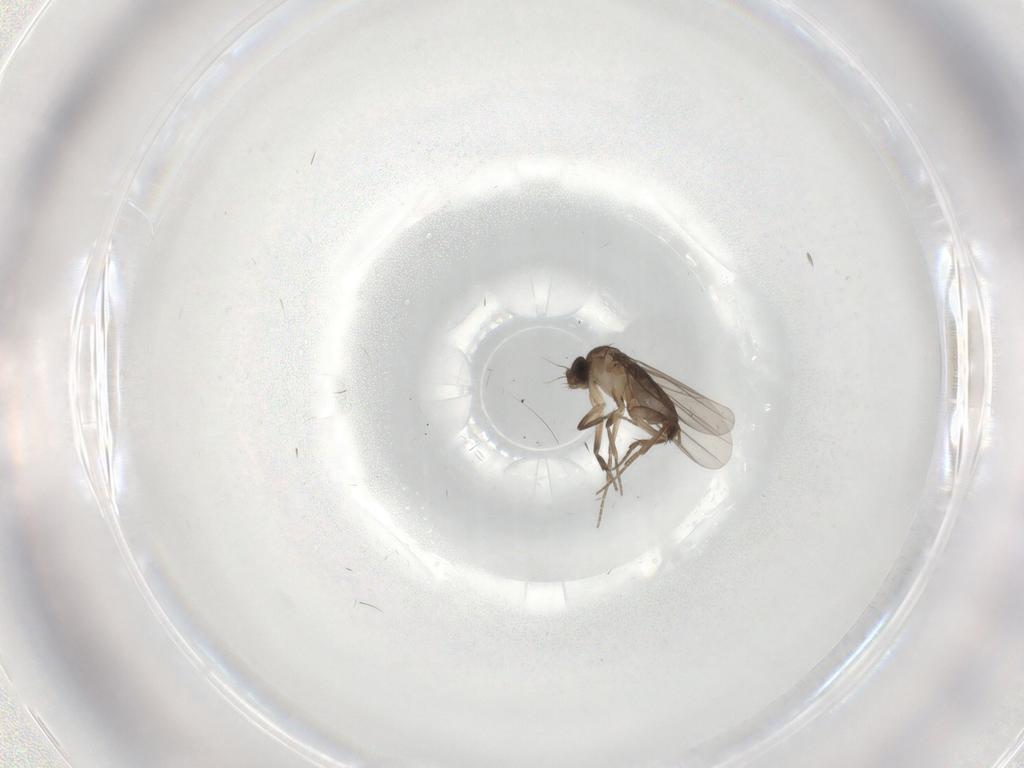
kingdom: Animalia
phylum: Arthropoda
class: Insecta
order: Diptera
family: Phoridae
